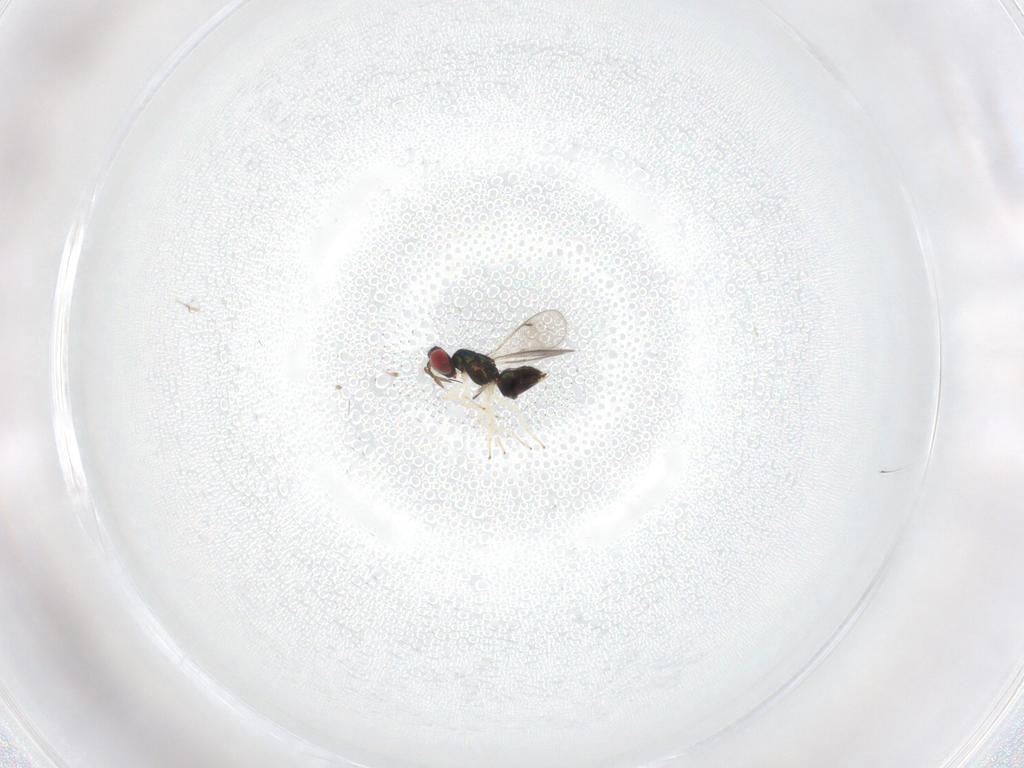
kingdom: Animalia
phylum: Arthropoda
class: Insecta
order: Hymenoptera
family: Eulophidae
